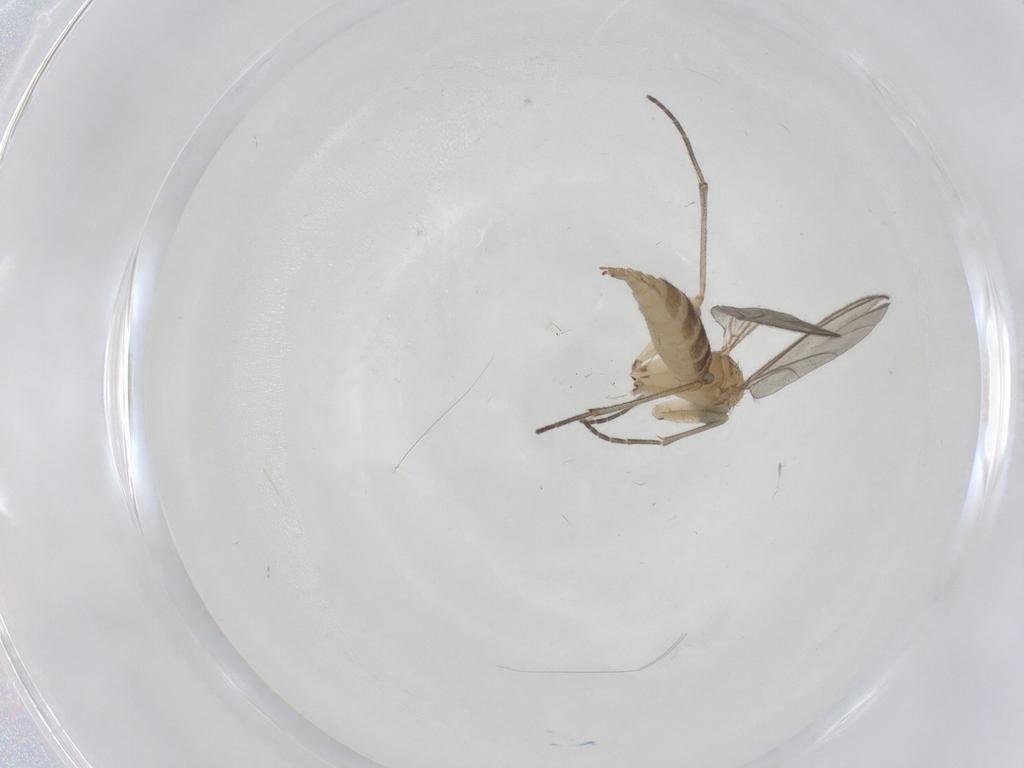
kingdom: Animalia
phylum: Arthropoda
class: Insecta
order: Diptera
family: Sciaridae
